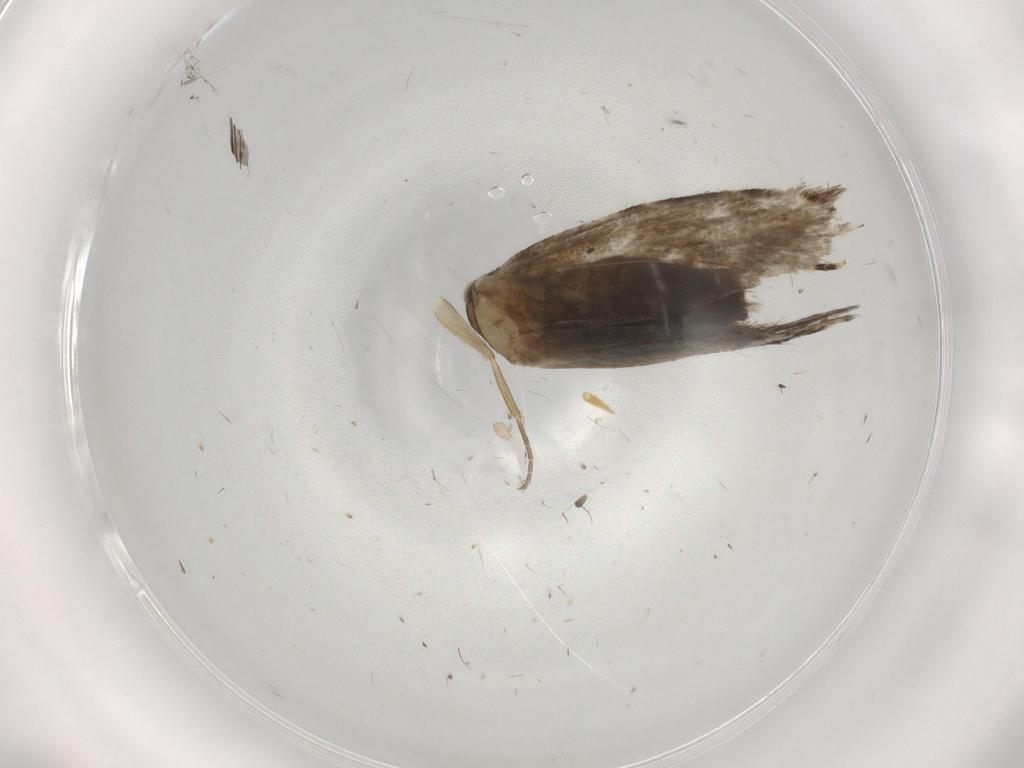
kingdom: Animalia
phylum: Arthropoda
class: Insecta
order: Lepidoptera
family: Tineidae
